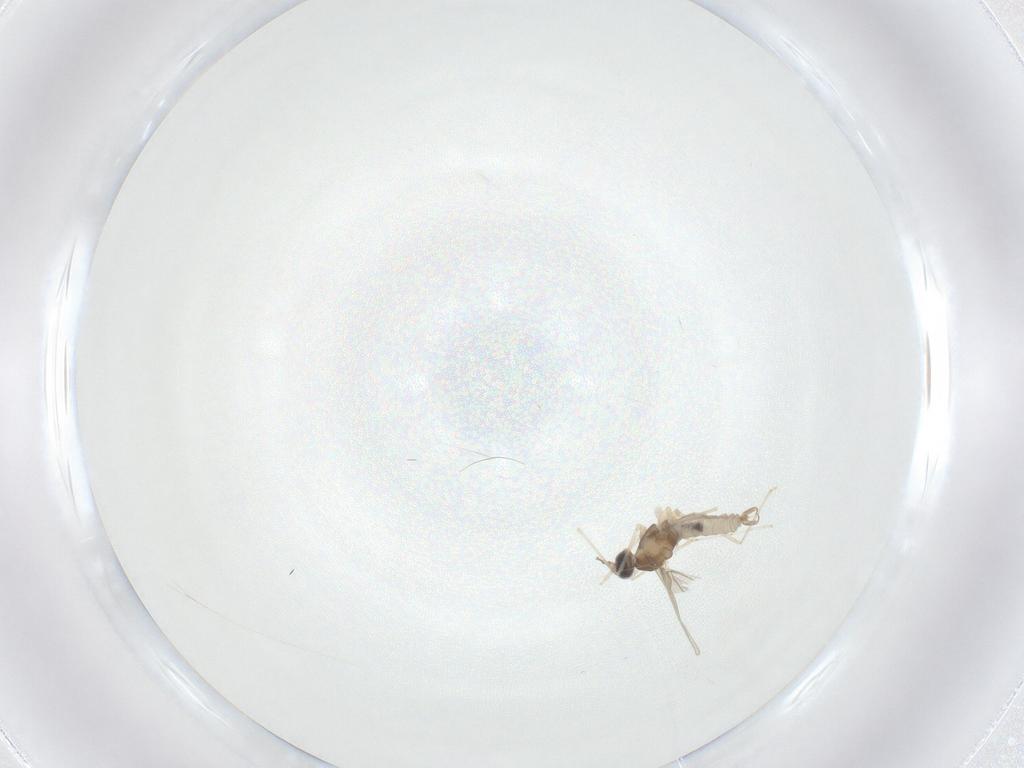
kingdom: Animalia
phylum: Arthropoda
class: Insecta
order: Diptera
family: Cecidomyiidae
